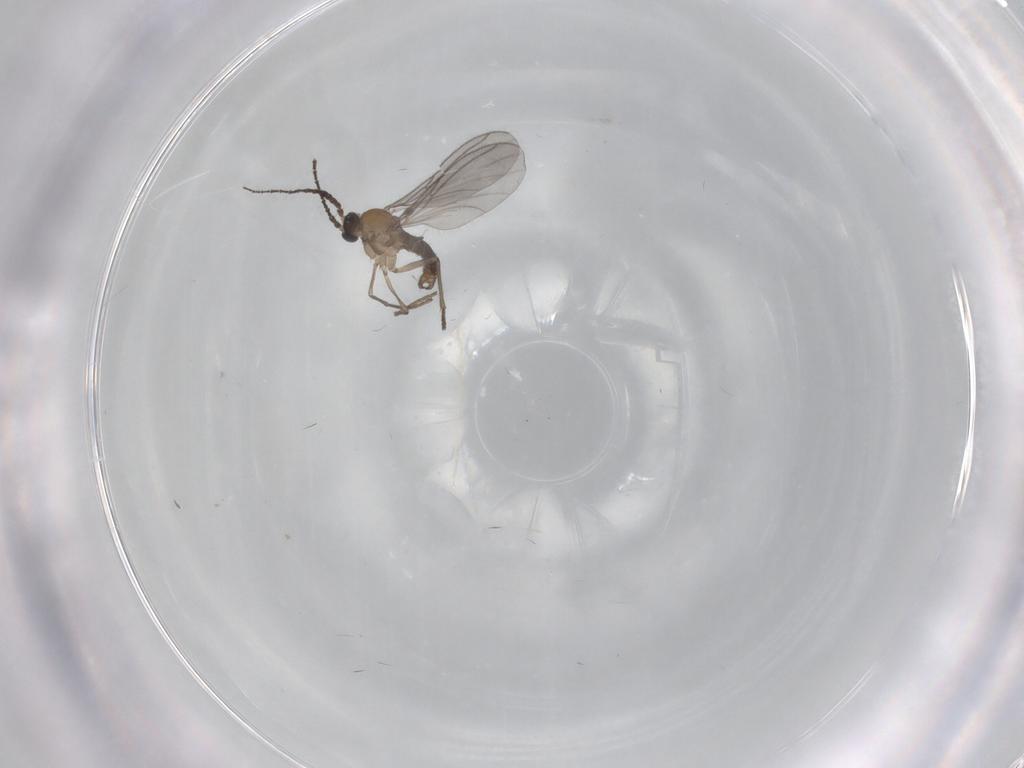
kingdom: Animalia
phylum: Arthropoda
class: Insecta
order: Diptera
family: Sciaridae
